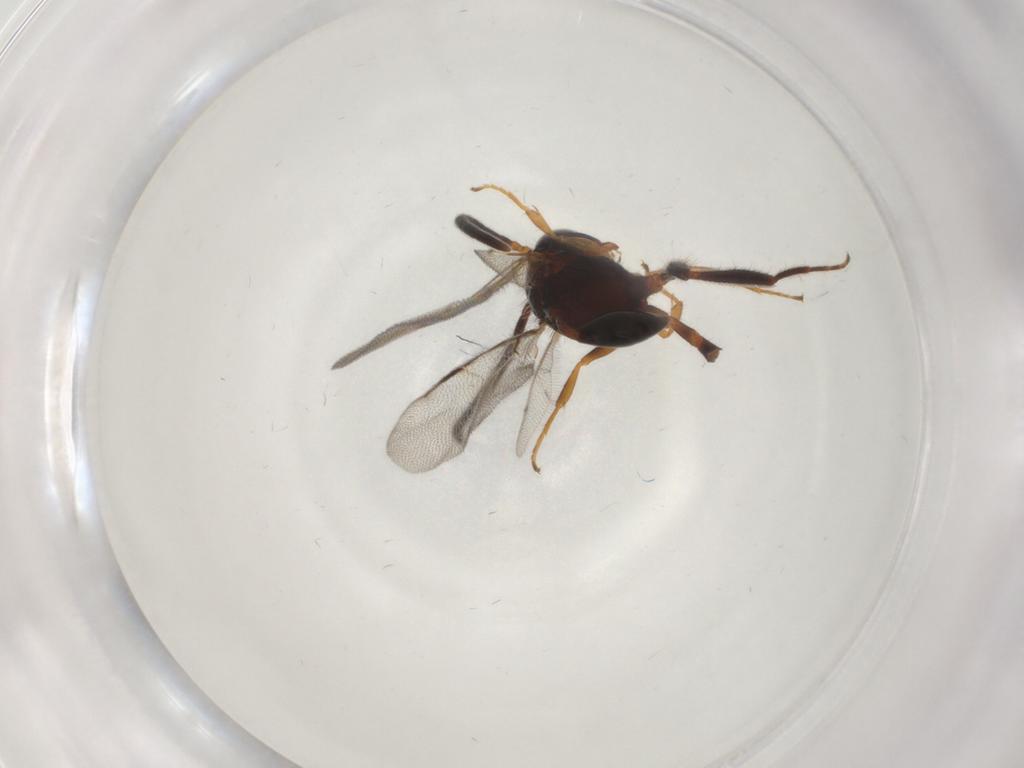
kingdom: Animalia
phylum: Arthropoda
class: Insecta
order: Hymenoptera
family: Evaniidae
